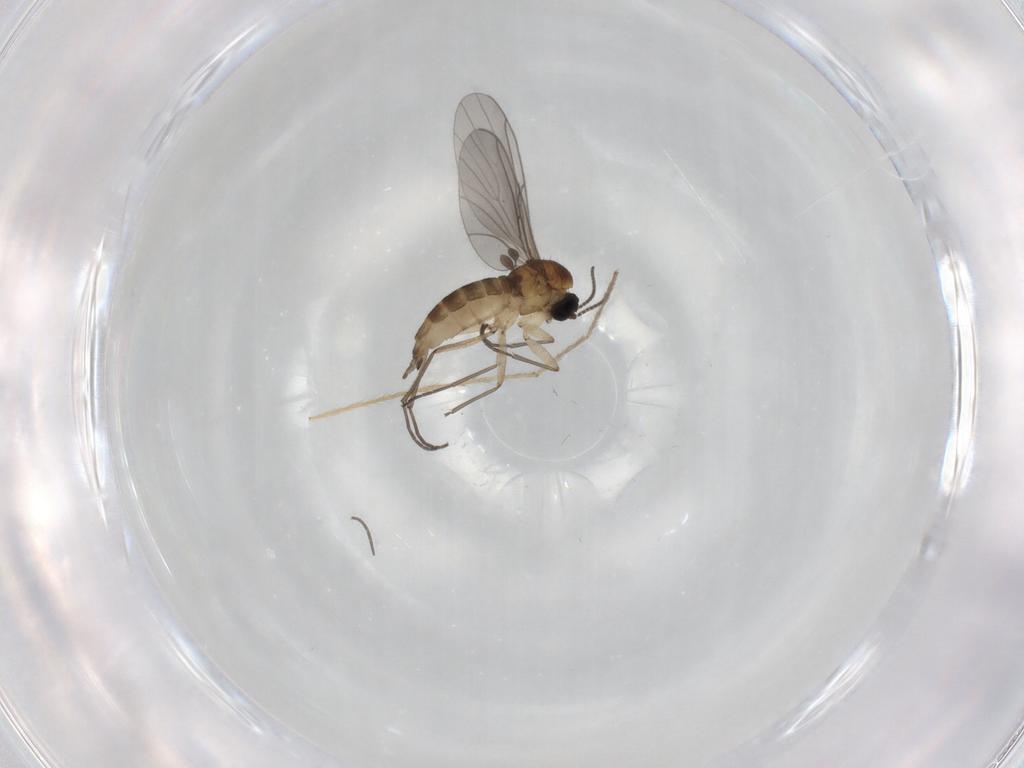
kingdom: Animalia
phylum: Arthropoda
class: Insecta
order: Diptera
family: Sciaridae
